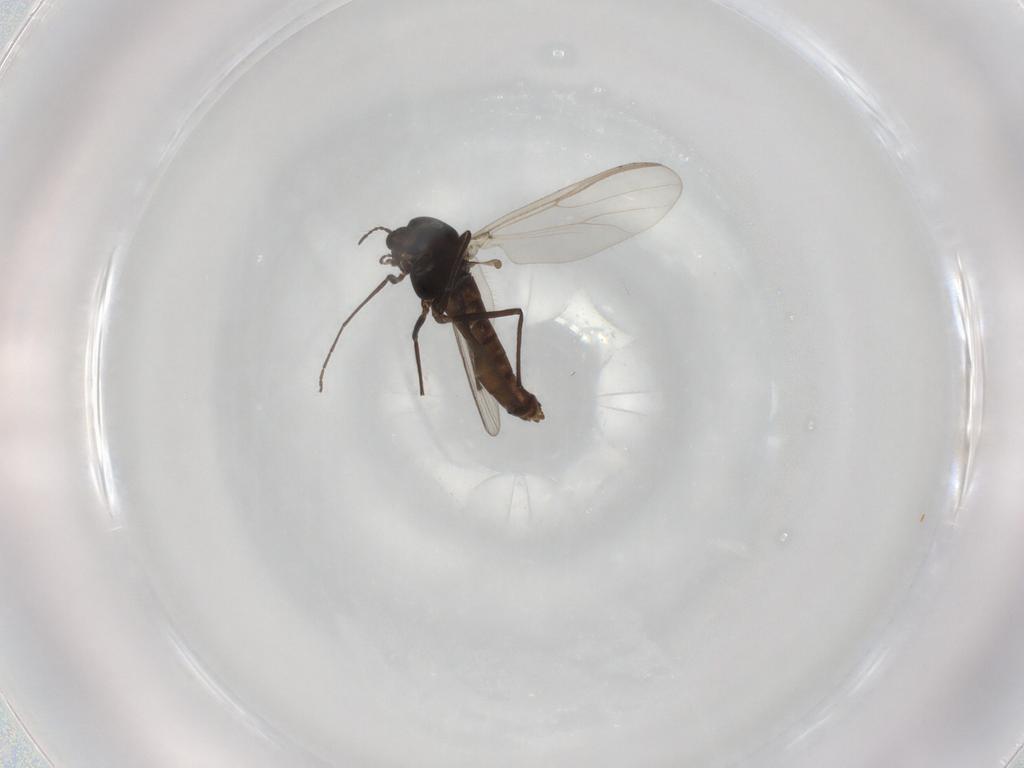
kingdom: Animalia
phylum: Arthropoda
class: Insecta
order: Diptera
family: Chironomidae
